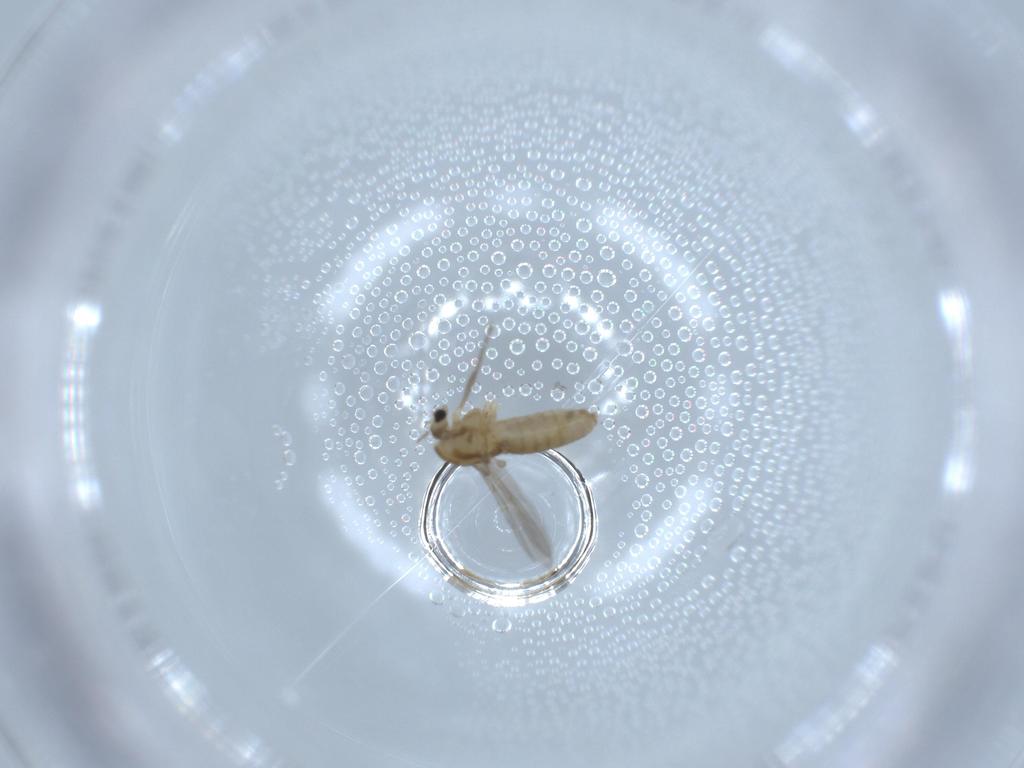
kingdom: Animalia
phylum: Arthropoda
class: Insecta
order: Diptera
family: Chironomidae
